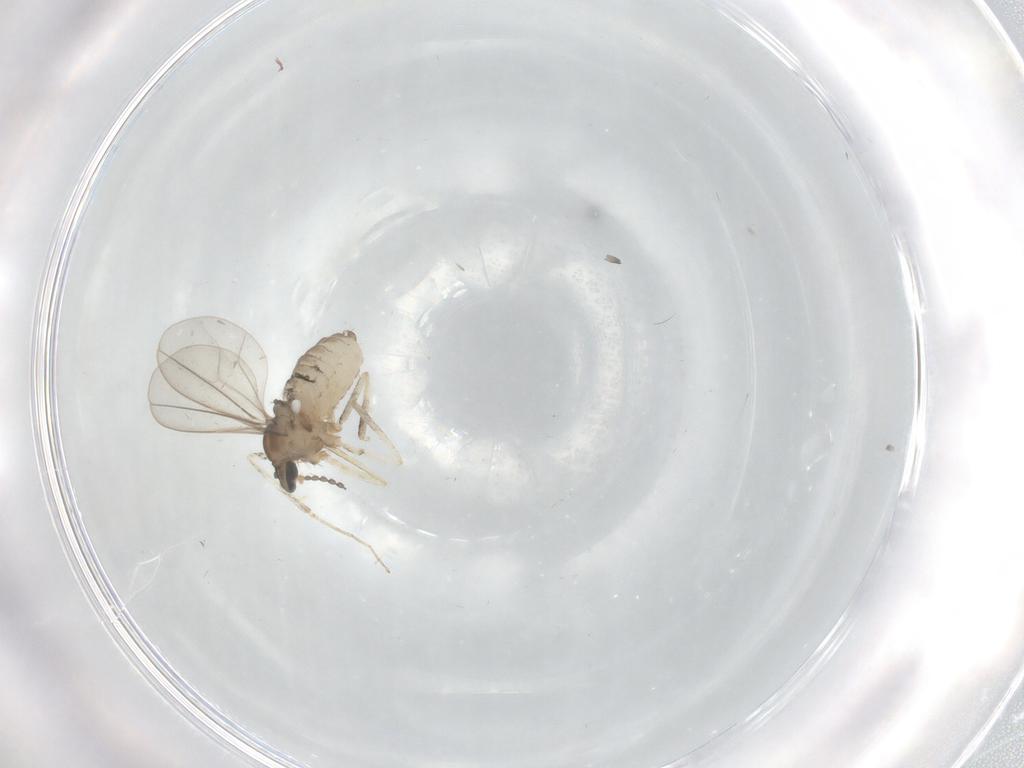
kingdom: Animalia
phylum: Arthropoda
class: Insecta
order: Diptera
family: Cecidomyiidae
